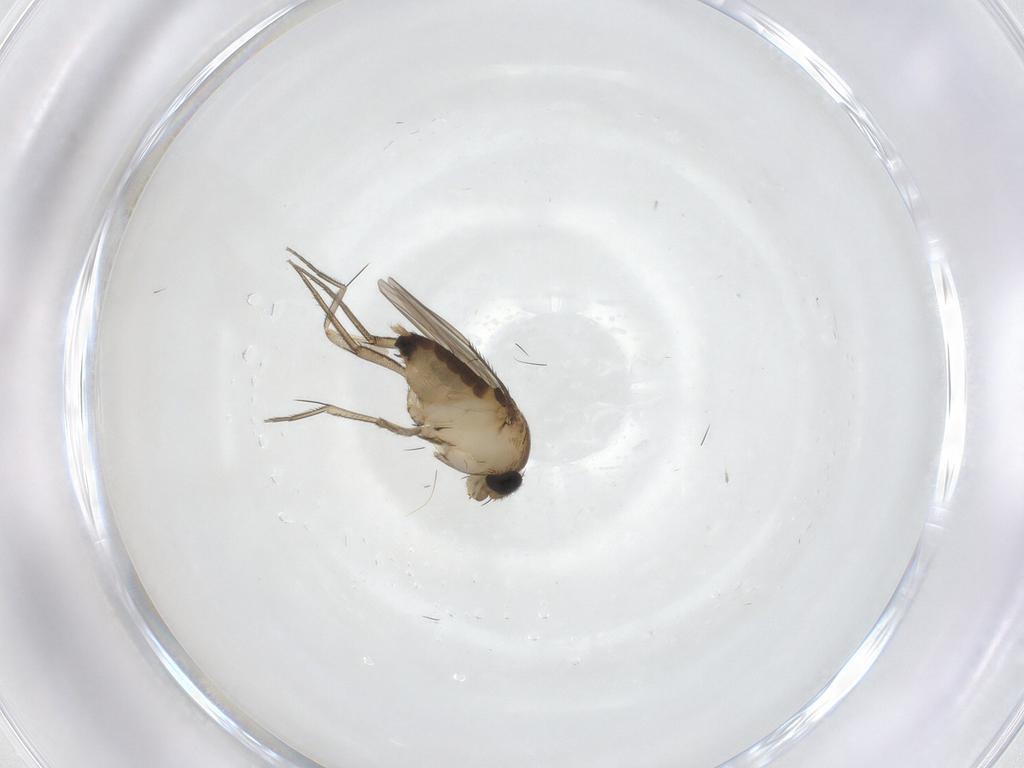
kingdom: Animalia
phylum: Arthropoda
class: Insecta
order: Diptera
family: Phoridae
